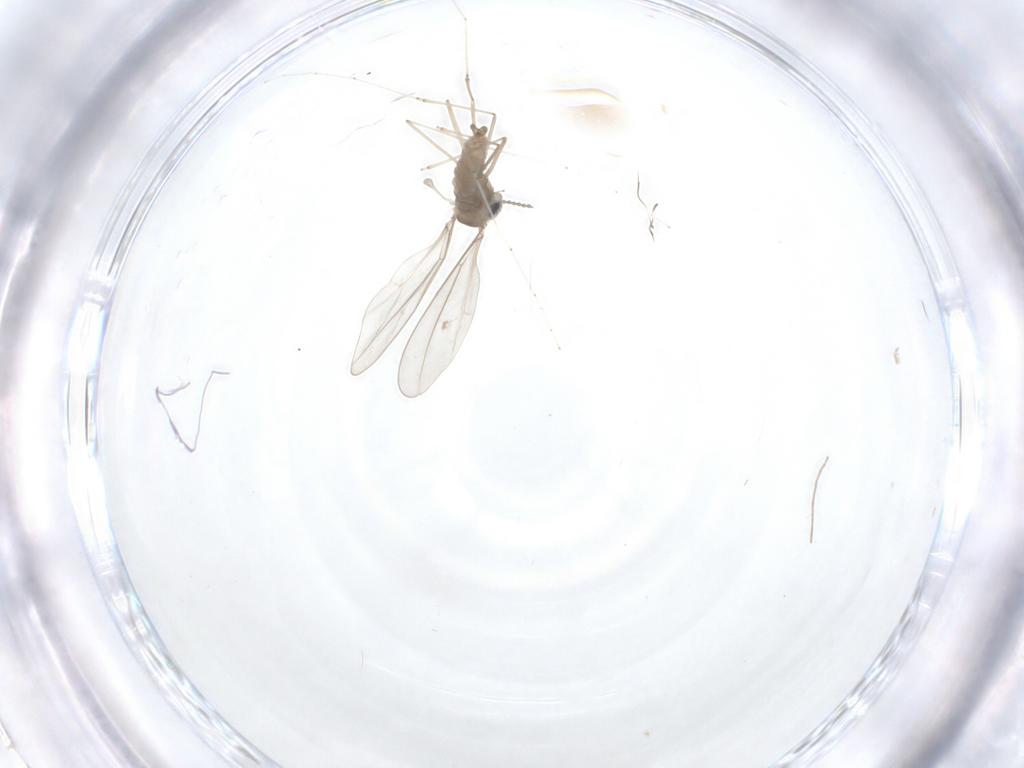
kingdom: Animalia
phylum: Arthropoda
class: Insecta
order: Diptera
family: Cecidomyiidae
